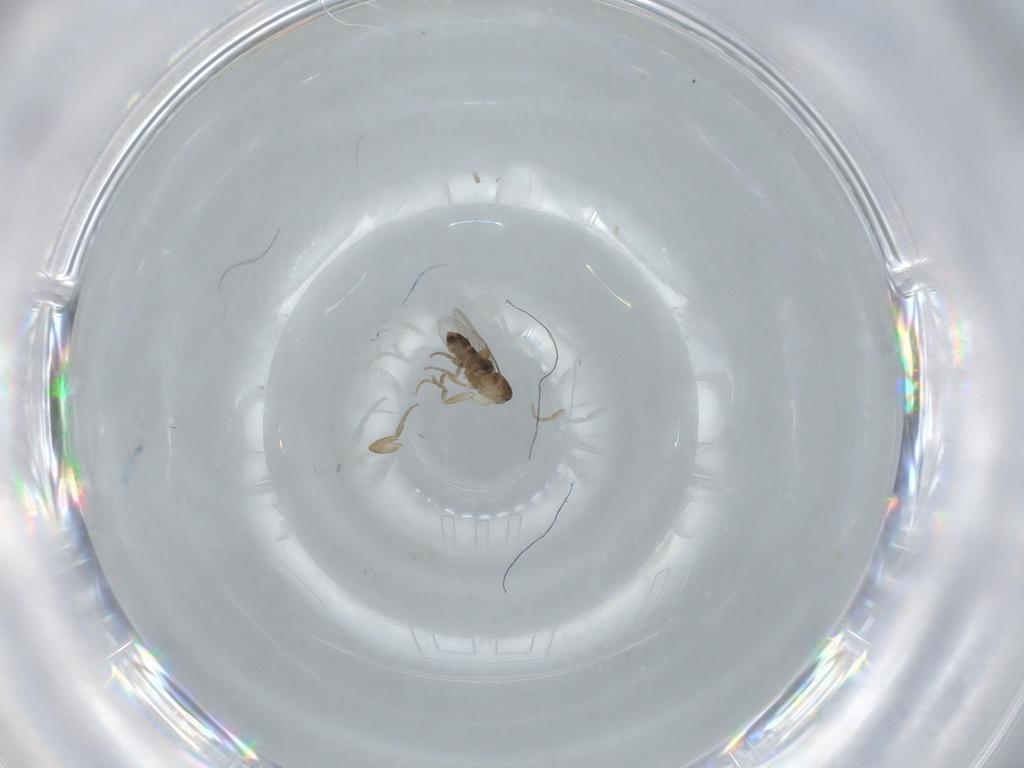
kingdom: Animalia
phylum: Arthropoda
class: Insecta
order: Diptera
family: Phoridae
